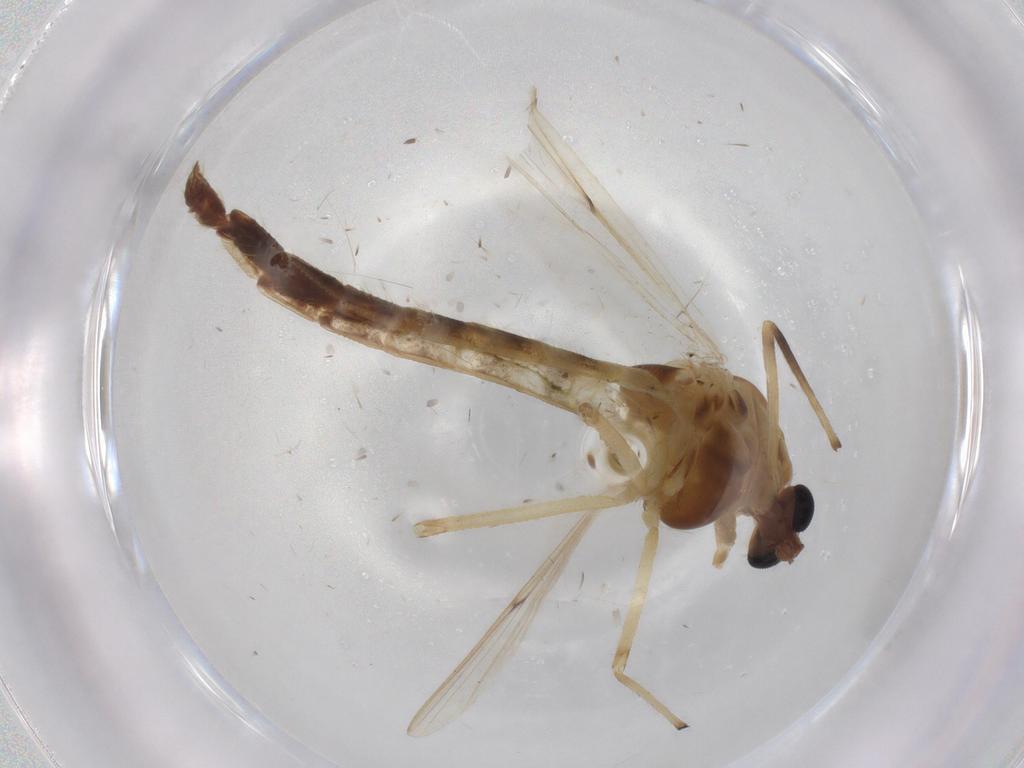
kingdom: Animalia
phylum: Arthropoda
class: Insecta
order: Diptera
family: Chironomidae
